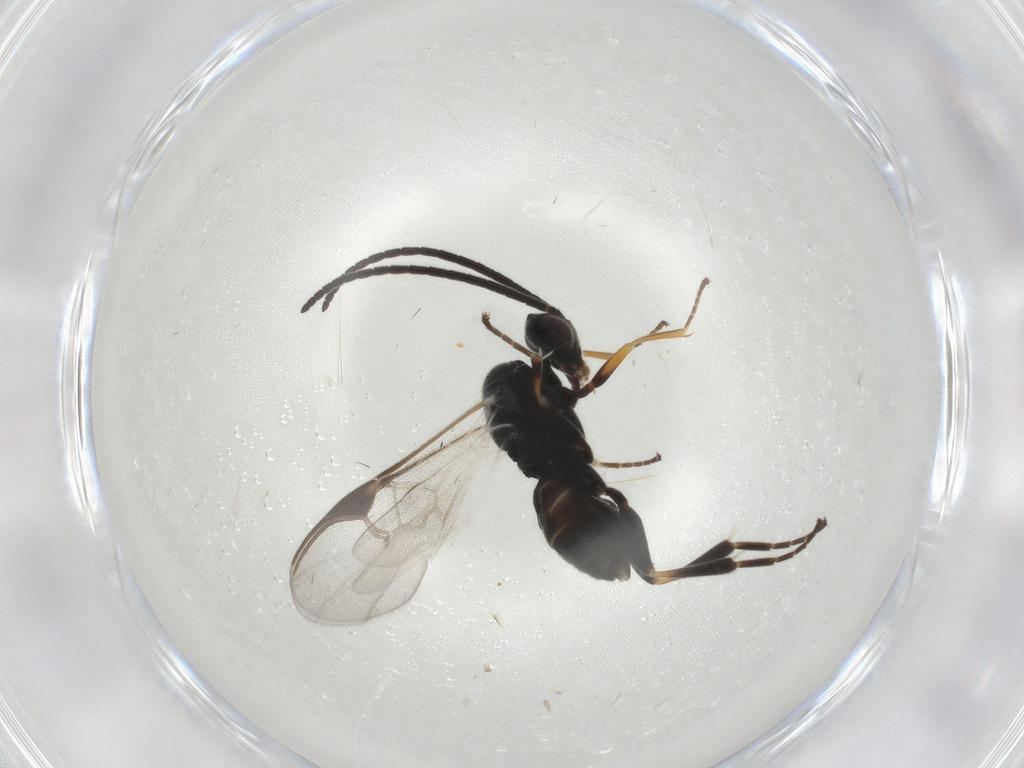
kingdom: Animalia
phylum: Arthropoda
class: Insecta
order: Hymenoptera
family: Braconidae
